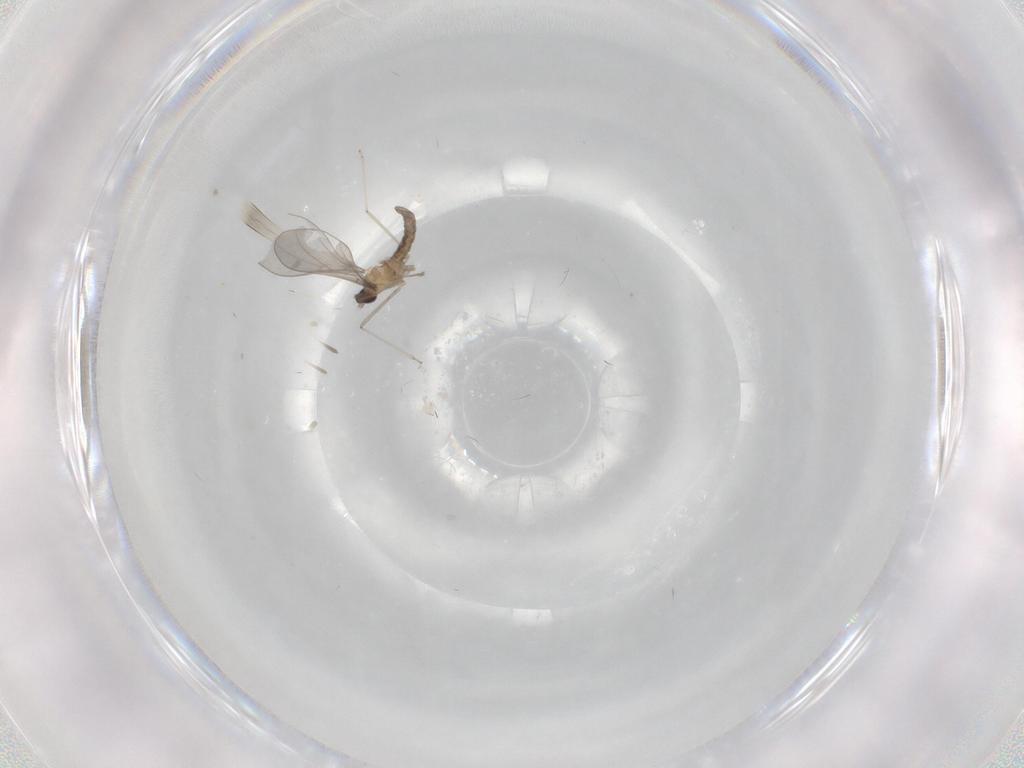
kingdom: Animalia
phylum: Arthropoda
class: Insecta
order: Diptera
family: Cecidomyiidae
